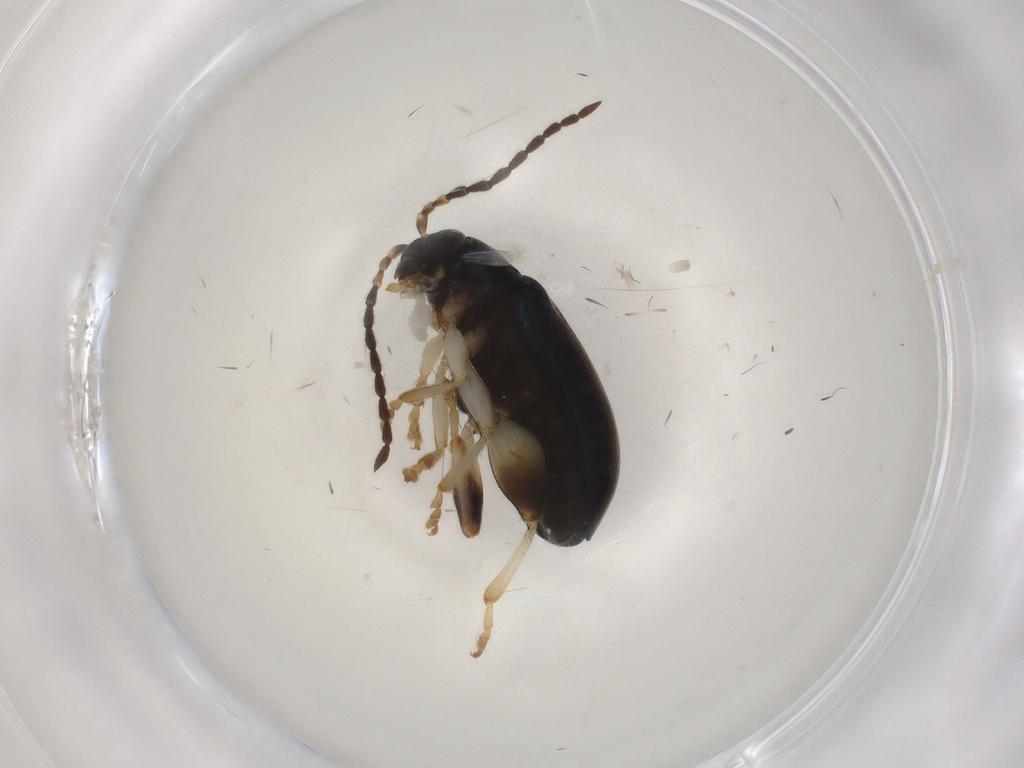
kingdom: Animalia
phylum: Arthropoda
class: Insecta
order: Coleoptera
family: Chrysomelidae
